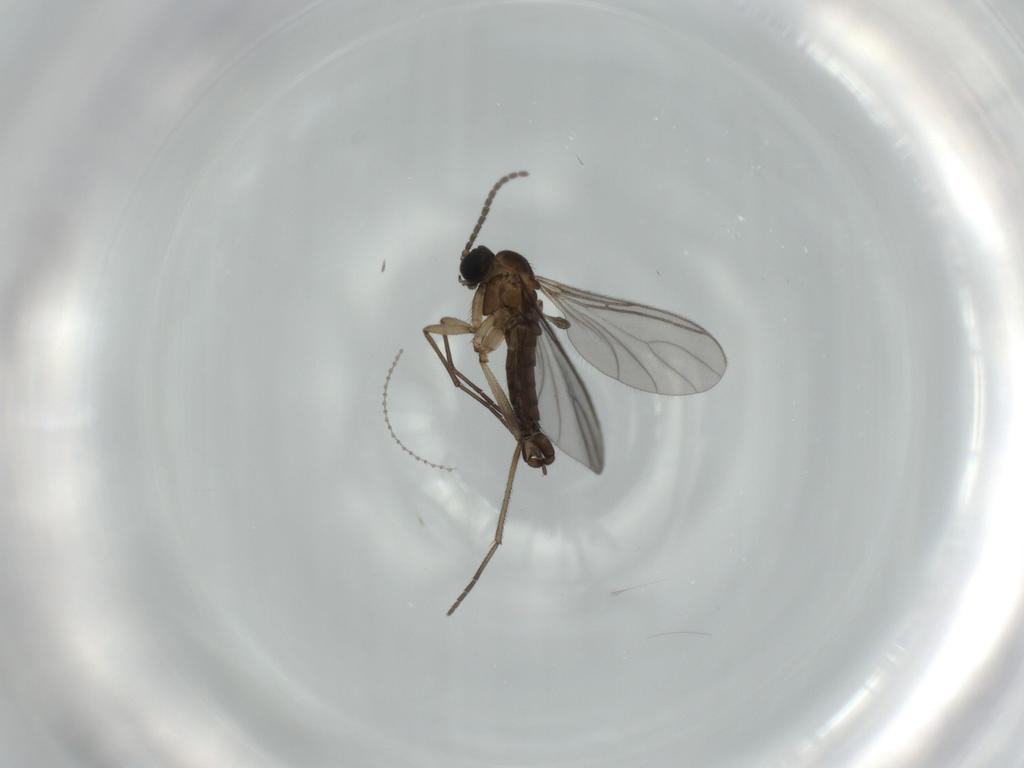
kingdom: Animalia
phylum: Arthropoda
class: Insecta
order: Diptera
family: Sciaridae
